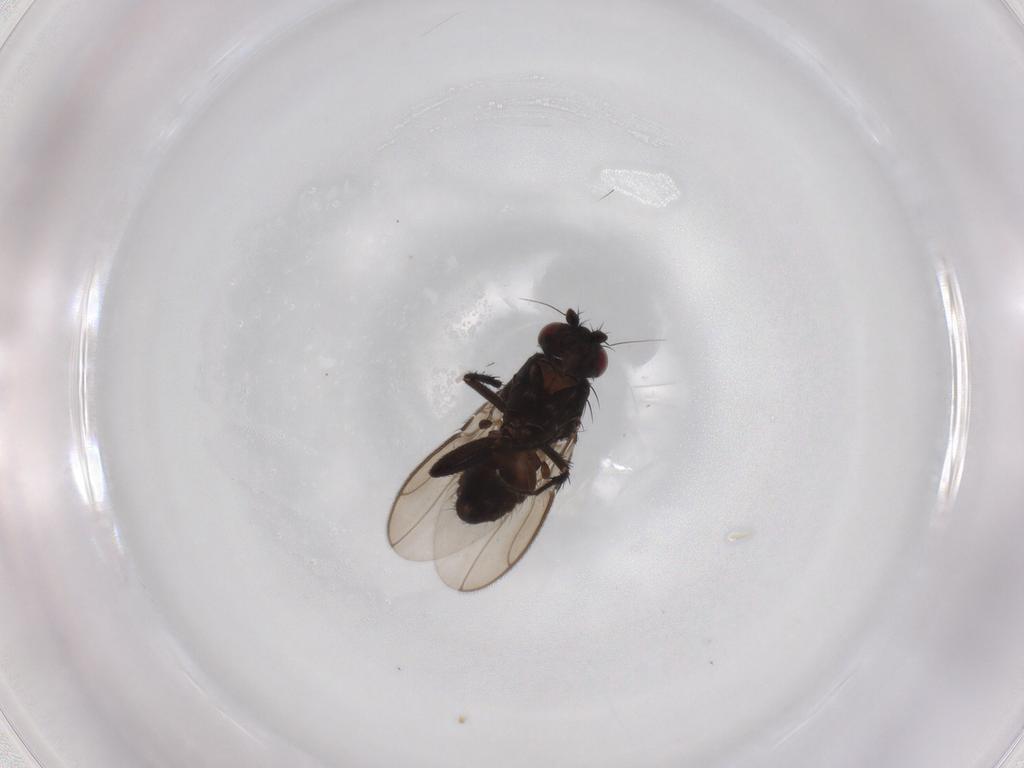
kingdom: Animalia
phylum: Arthropoda
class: Insecta
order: Diptera
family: Sphaeroceridae
